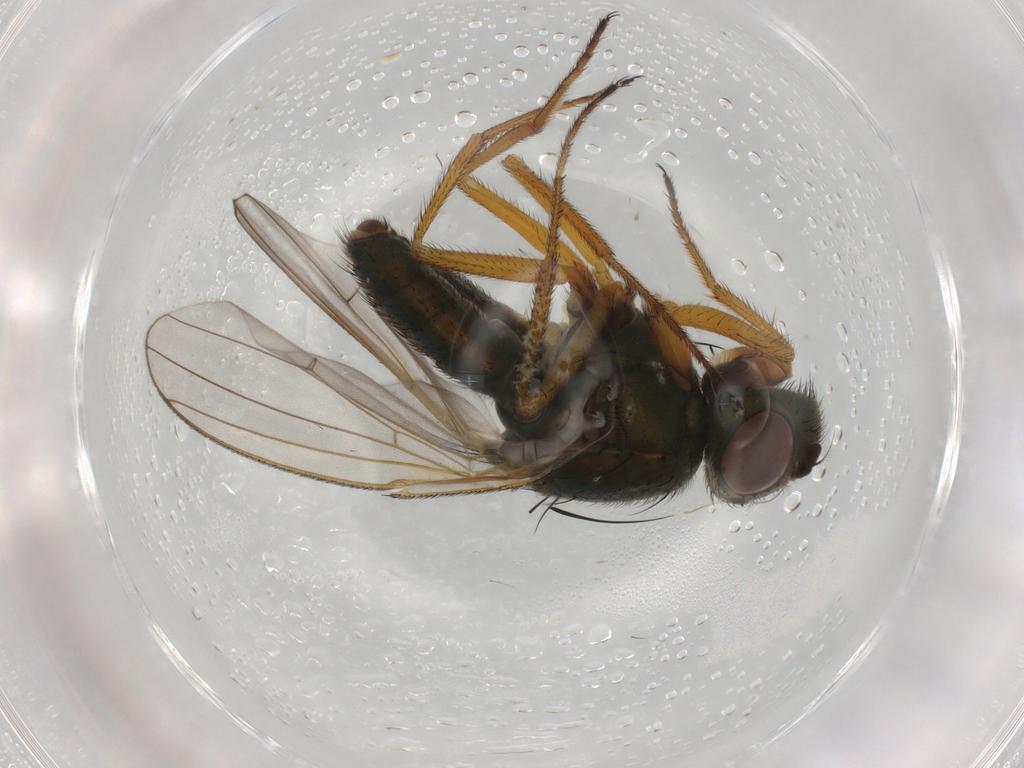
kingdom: Animalia
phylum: Arthropoda
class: Insecta
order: Diptera
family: Ephydridae
